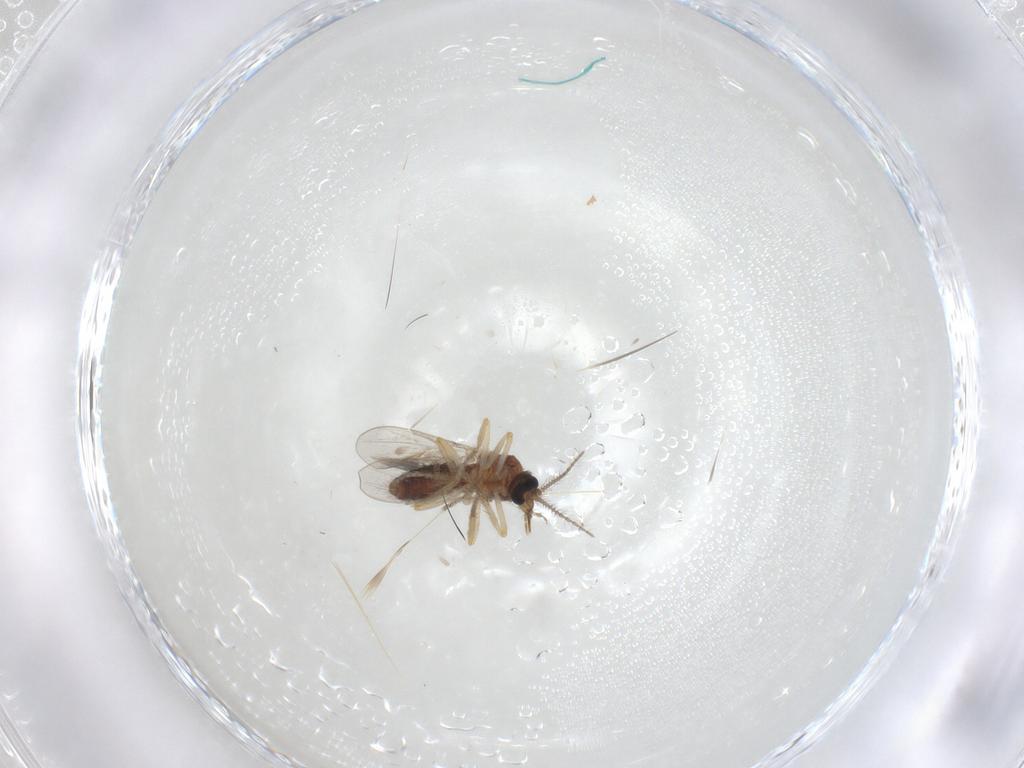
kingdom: Animalia
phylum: Arthropoda
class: Insecta
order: Diptera
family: Ceratopogonidae
